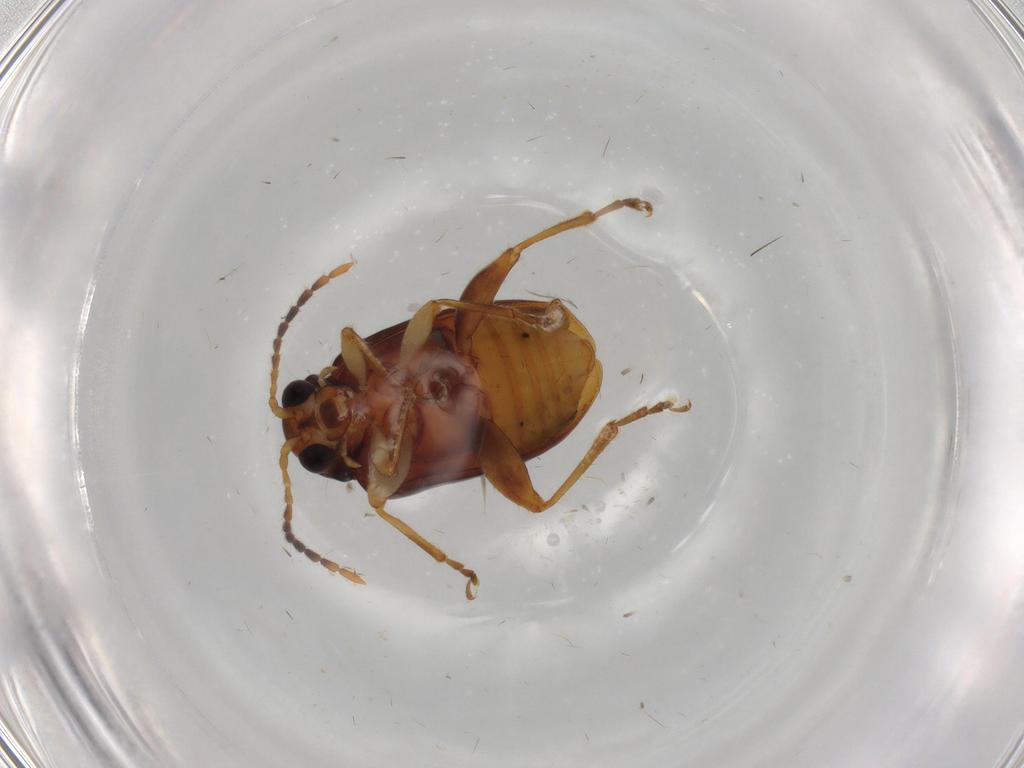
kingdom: Animalia
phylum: Arthropoda
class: Insecta
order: Coleoptera
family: Chrysomelidae
